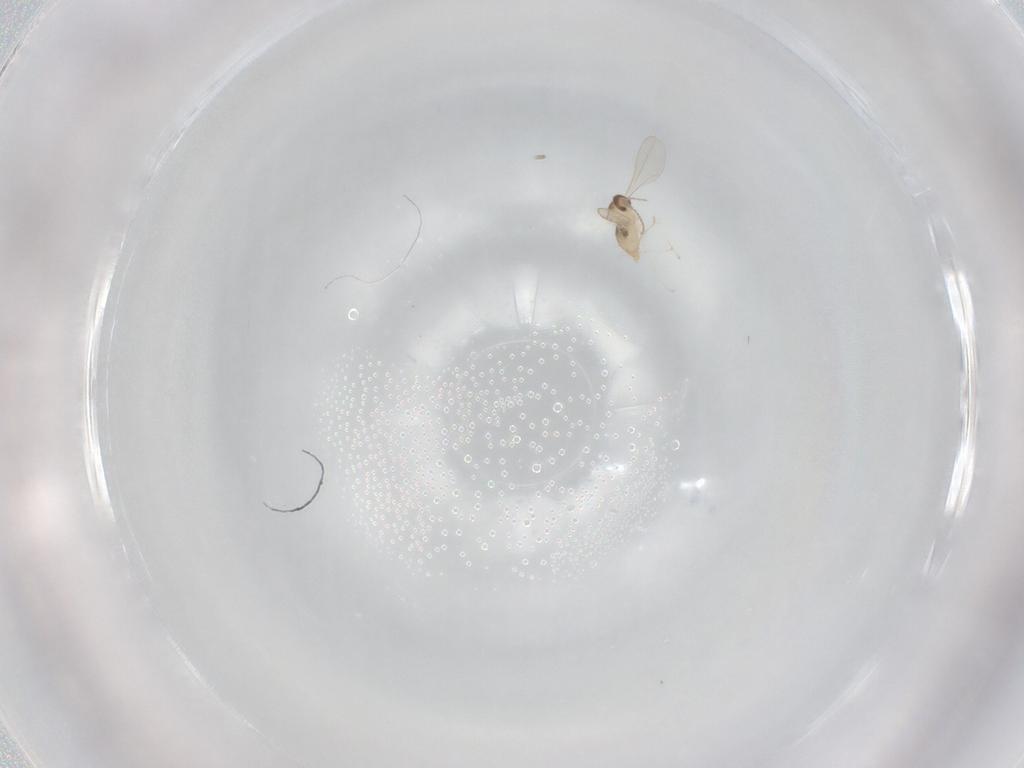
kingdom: Animalia
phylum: Arthropoda
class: Insecta
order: Diptera
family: Cecidomyiidae
